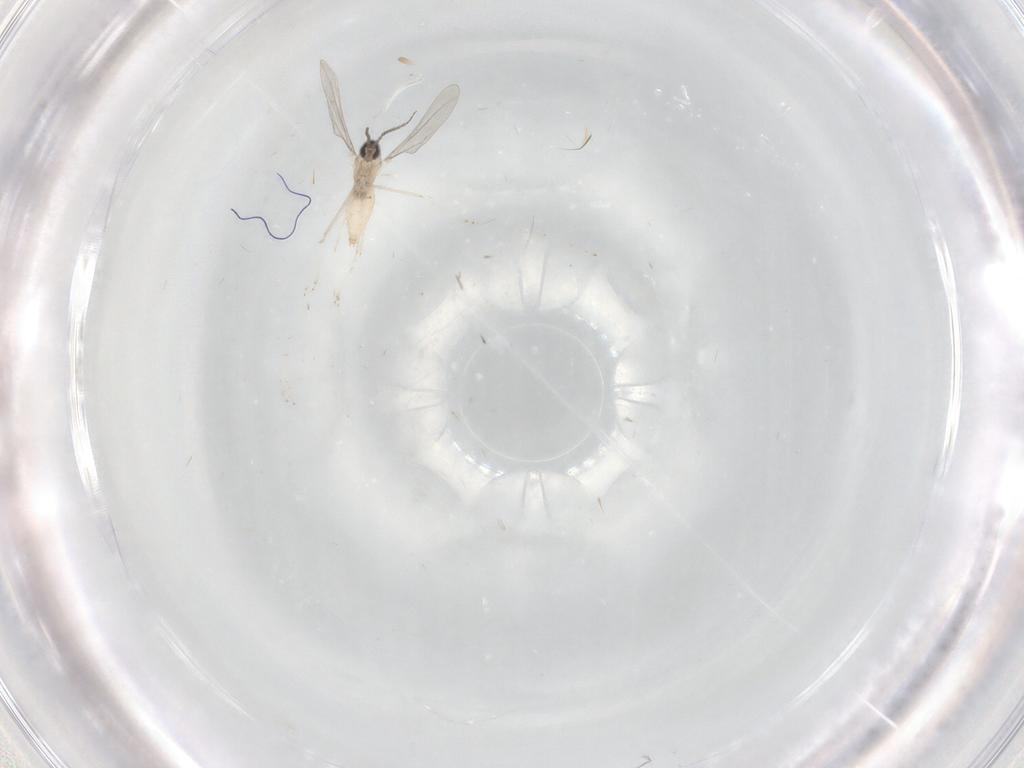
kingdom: Animalia
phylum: Arthropoda
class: Insecta
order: Diptera
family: Cecidomyiidae
